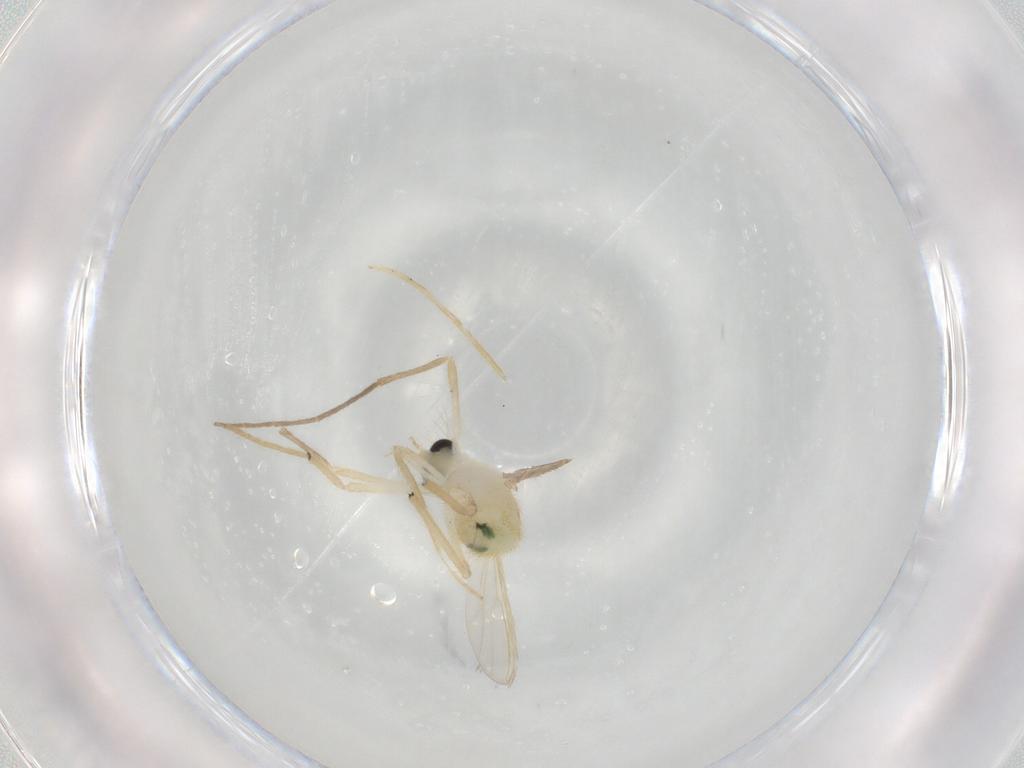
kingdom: Animalia
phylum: Arthropoda
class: Insecta
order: Diptera
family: Chironomidae
